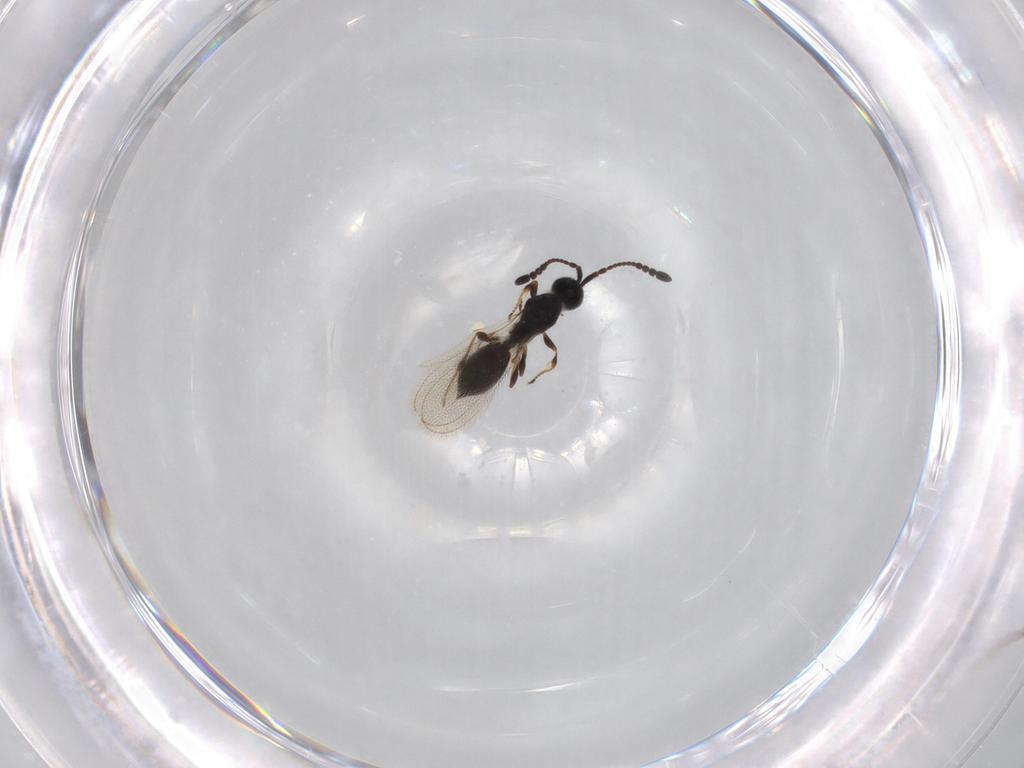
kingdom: Animalia
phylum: Arthropoda
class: Insecta
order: Hymenoptera
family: Diapriidae
